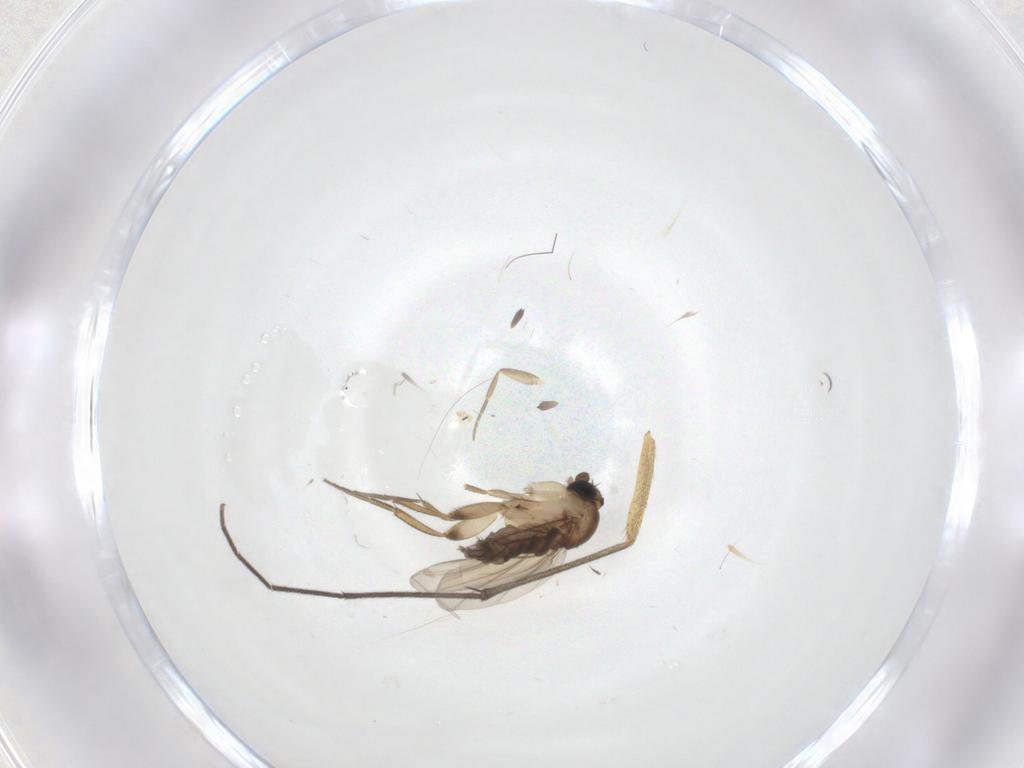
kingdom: Animalia
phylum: Arthropoda
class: Insecta
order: Diptera
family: Phoridae
